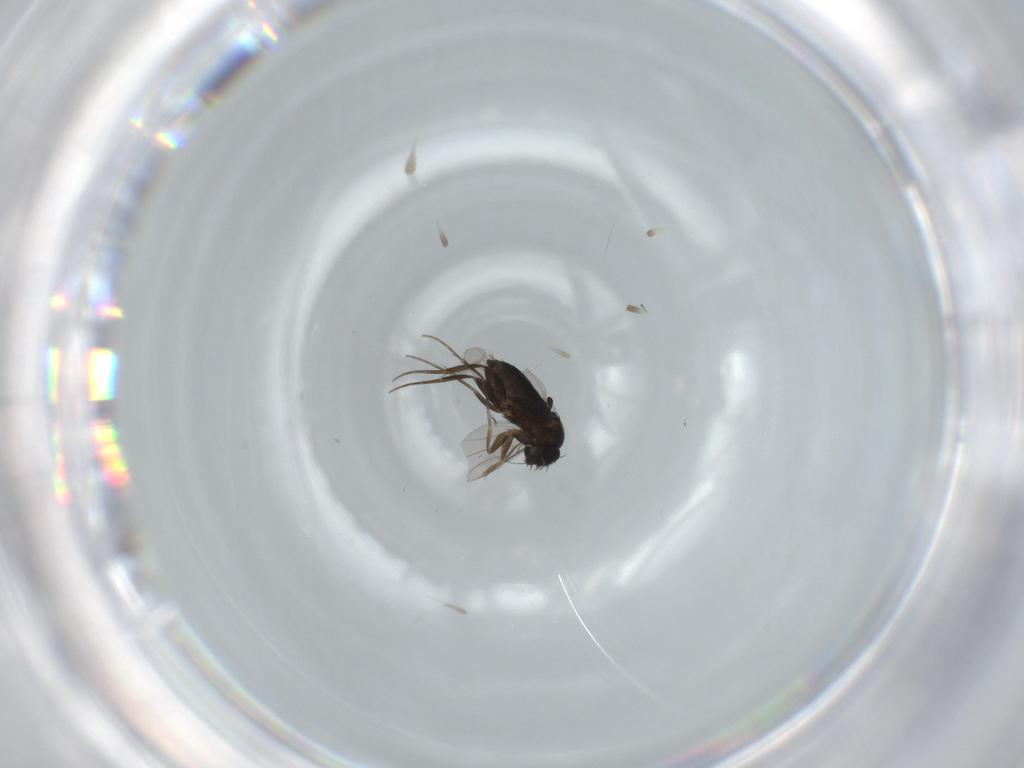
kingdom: Animalia
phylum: Arthropoda
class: Insecta
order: Diptera
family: Phoridae
